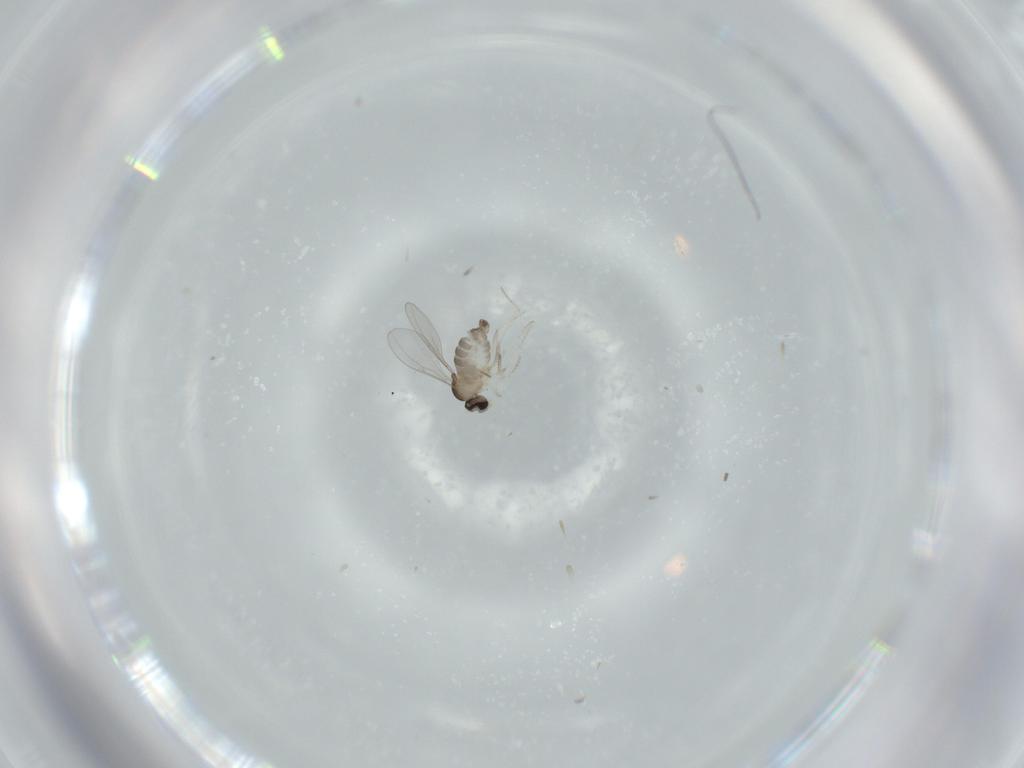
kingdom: Animalia
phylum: Arthropoda
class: Insecta
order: Diptera
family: Cecidomyiidae
